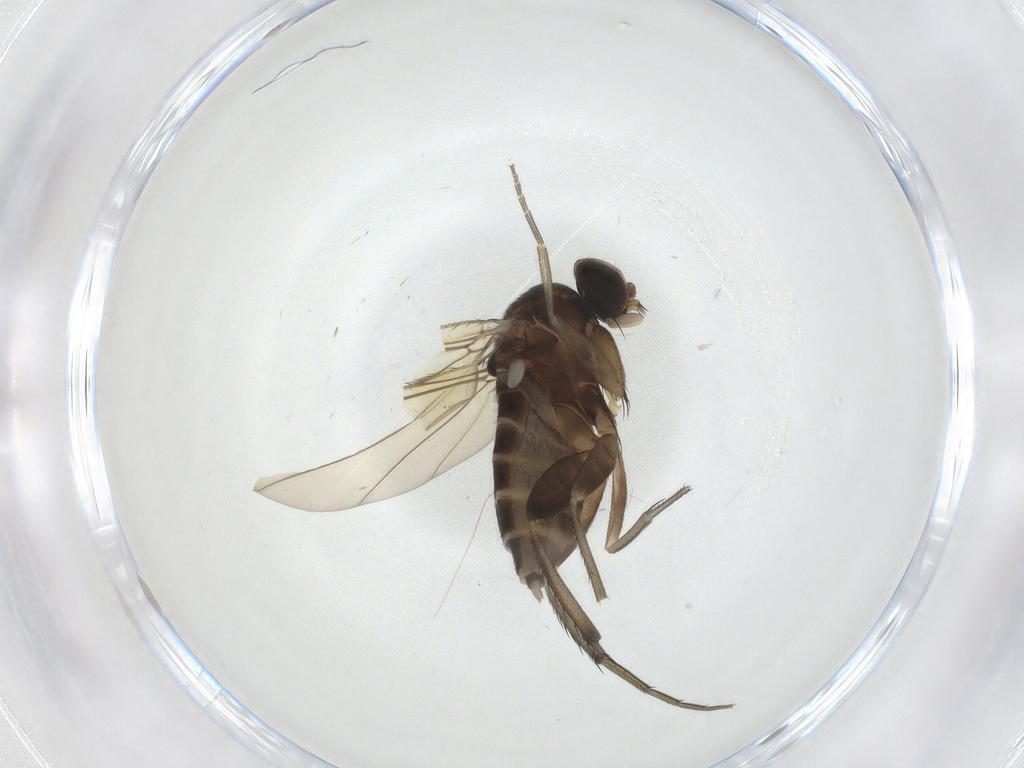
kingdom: Animalia
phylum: Arthropoda
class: Insecta
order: Diptera
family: Phoridae
